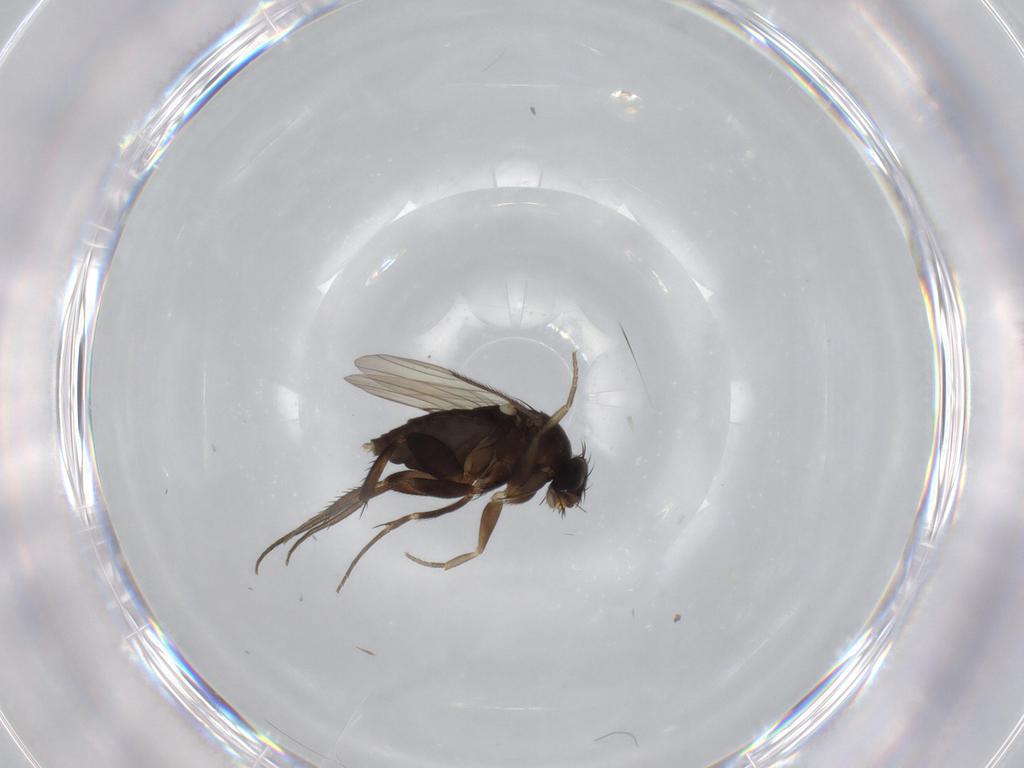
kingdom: Animalia
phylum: Arthropoda
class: Insecta
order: Diptera
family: Phoridae
